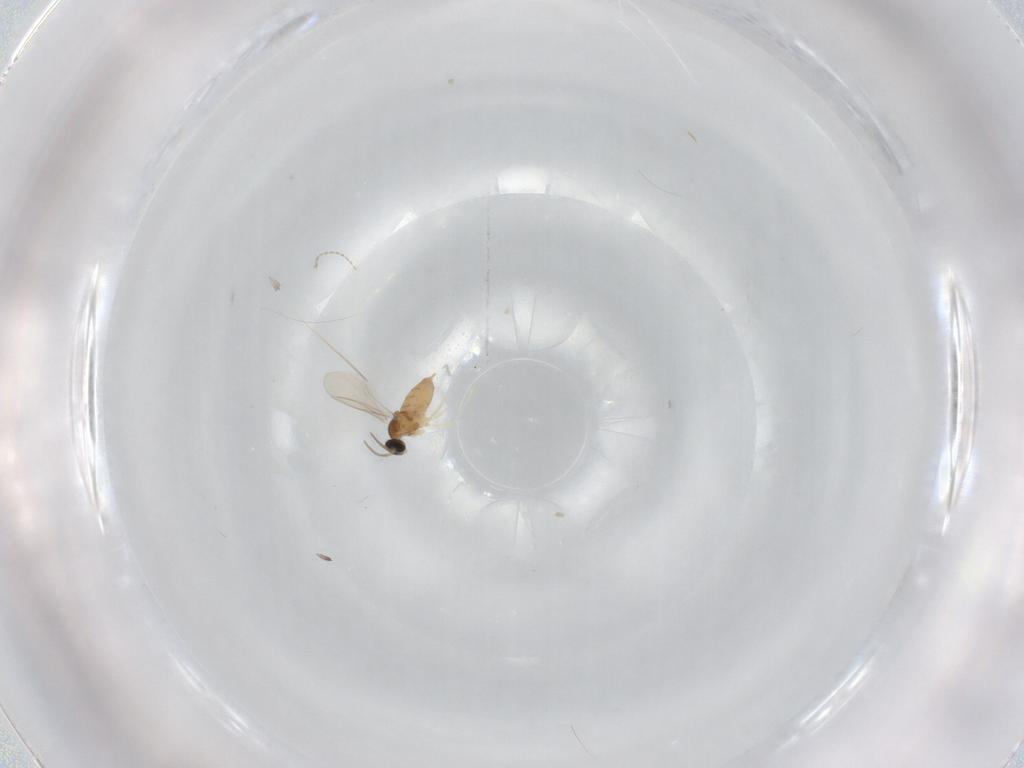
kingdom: Animalia
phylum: Arthropoda
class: Insecta
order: Diptera
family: Cecidomyiidae
